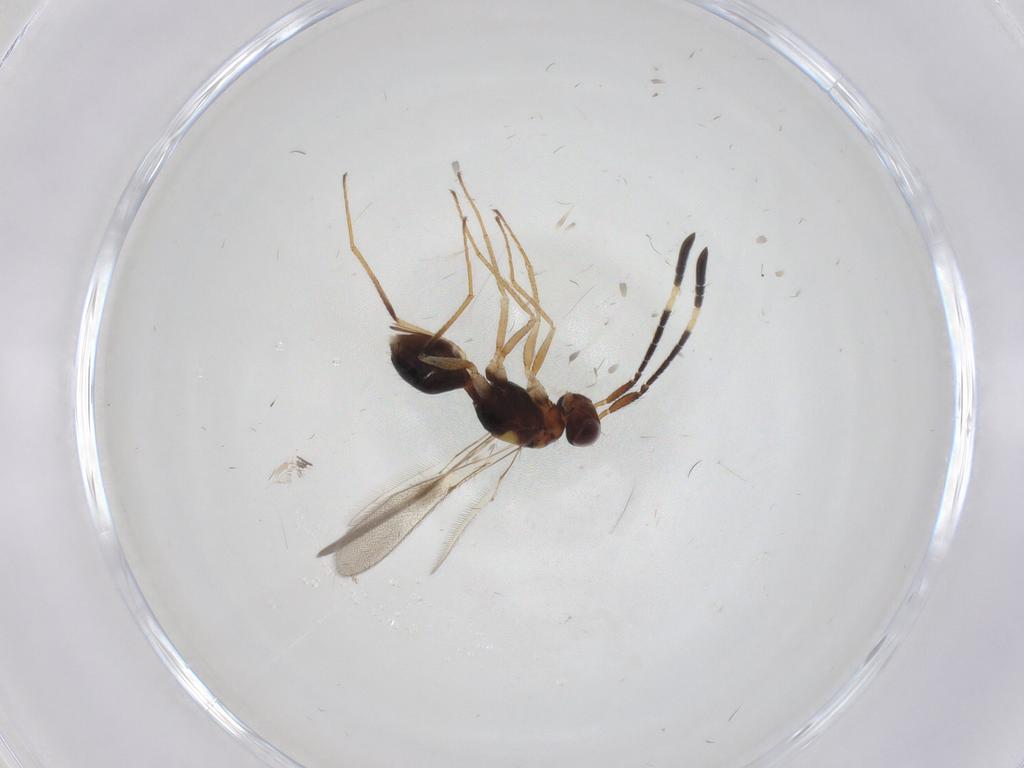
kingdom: Animalia
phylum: Arthropoda
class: Insecta
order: Hymenoptera
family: Mymaridae
